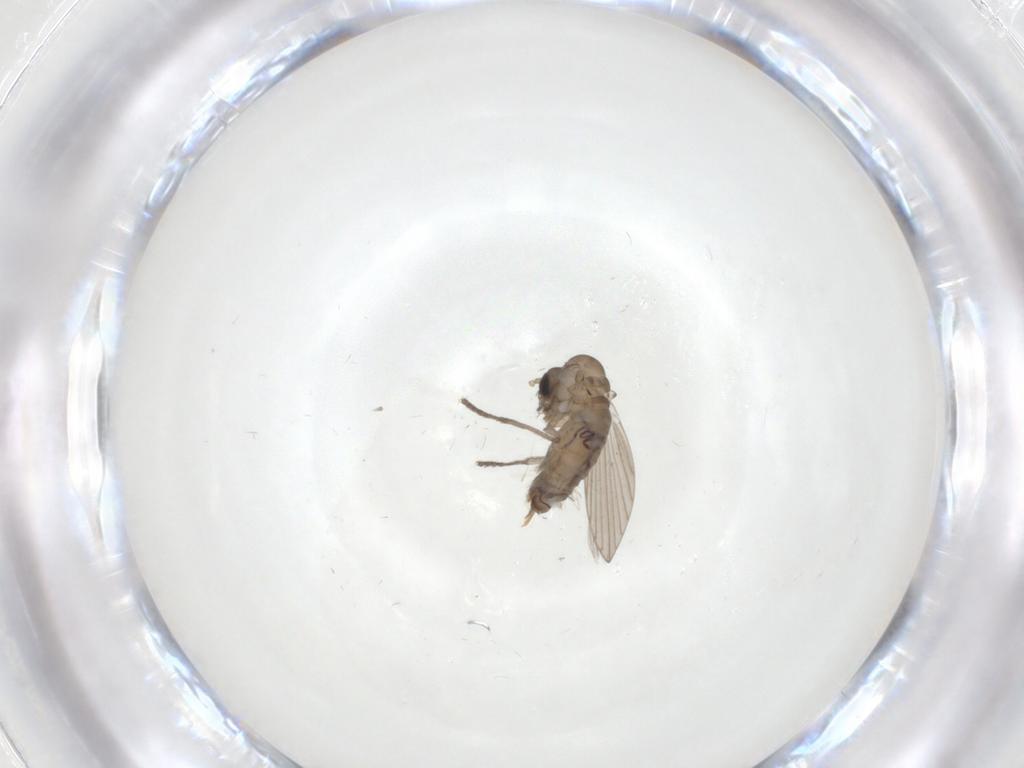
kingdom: Animalia
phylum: Arthropoda
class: Insecta
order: Diptera
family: Psychodidae
